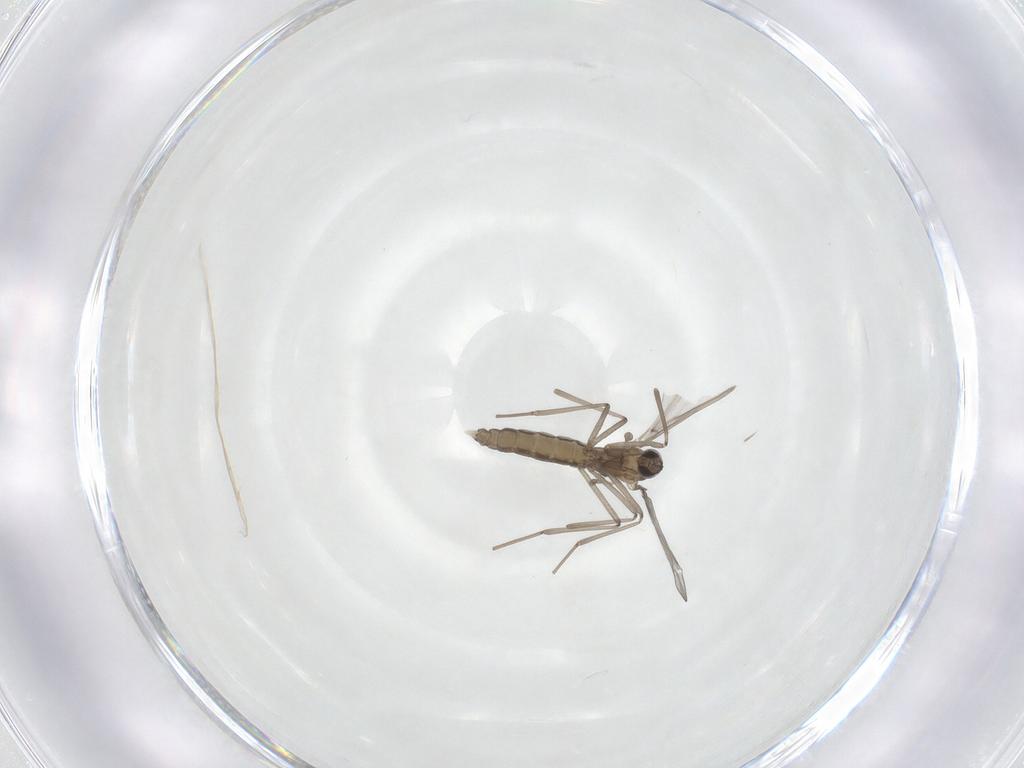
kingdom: Animalia
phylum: Arthropoda
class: Insecta
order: Diptera
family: Cecidomyiidae
